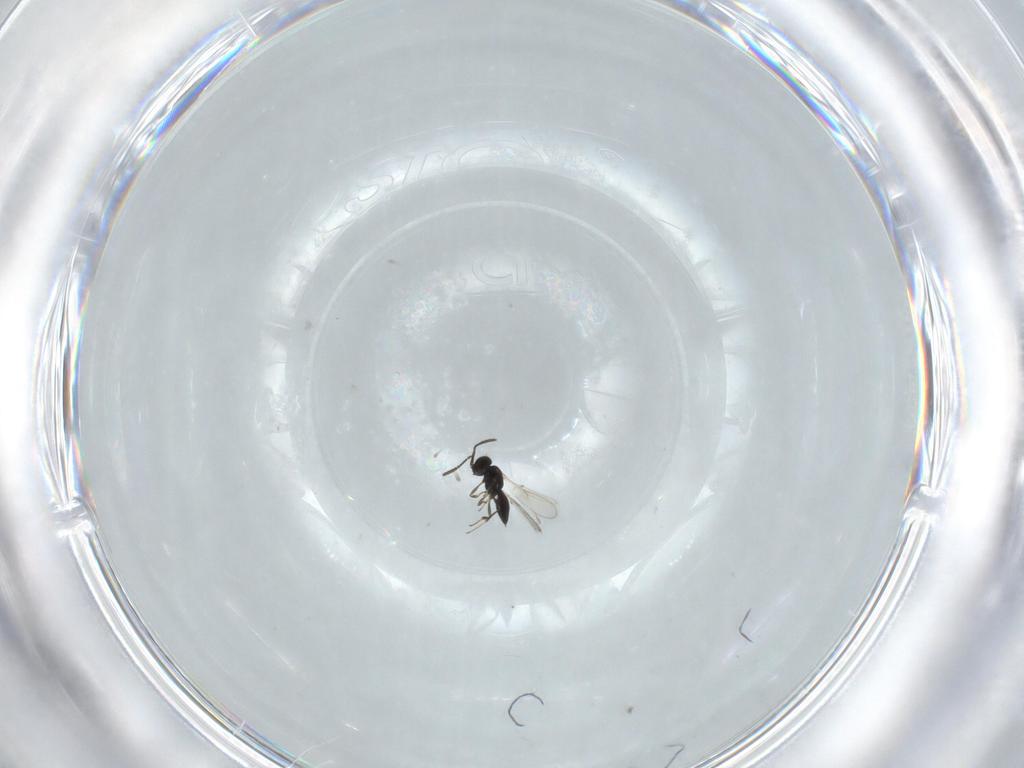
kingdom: Animalia
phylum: Arthropoda
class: Insecta
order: Hymenoptera
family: Scelionidae
